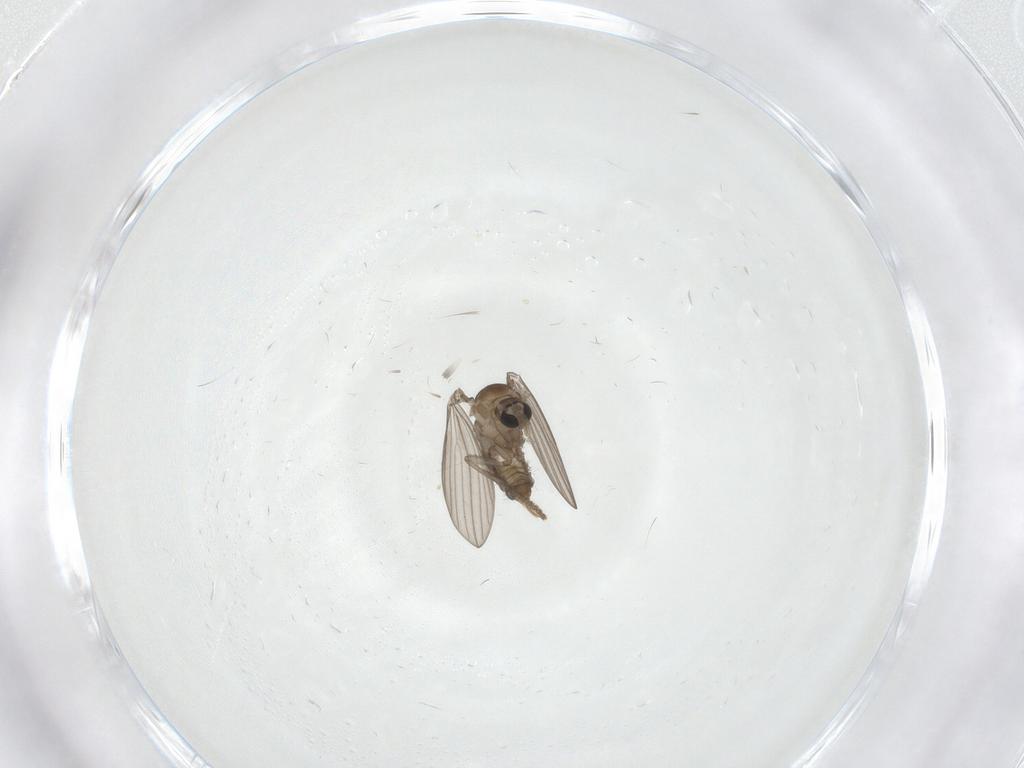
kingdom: Animalia
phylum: Arthropoda
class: Insecta
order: Diptera
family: Psychodidae
